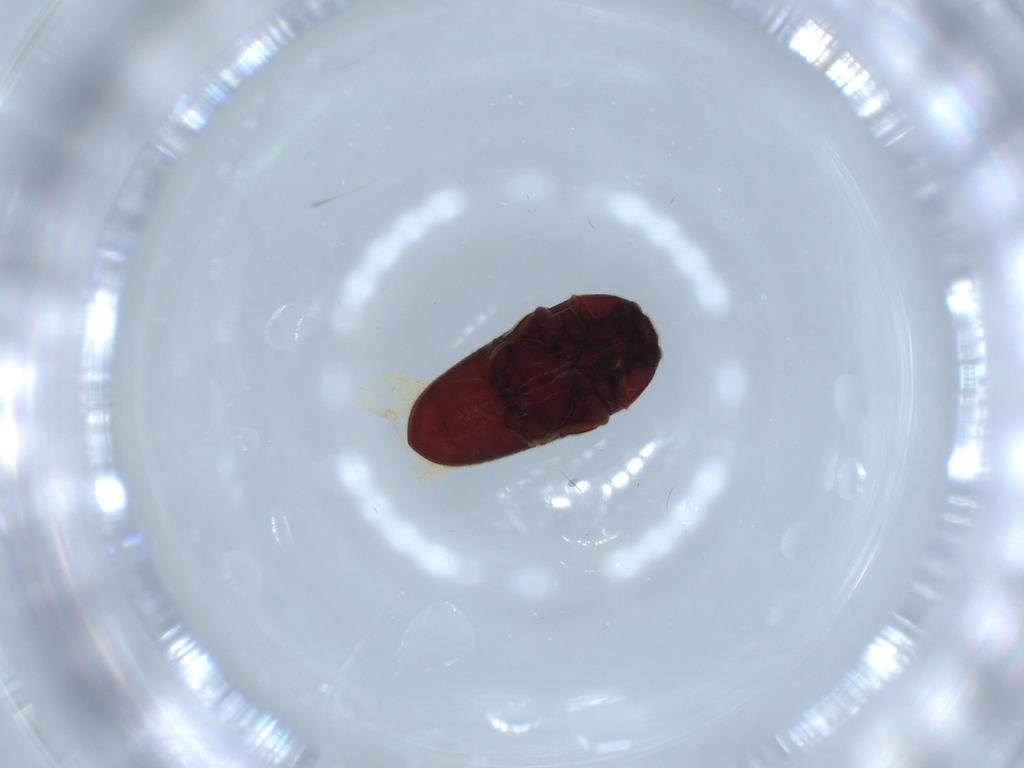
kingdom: Animalia
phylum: Arthropoda
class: Insecta
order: Coleoptera
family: Throscidae
